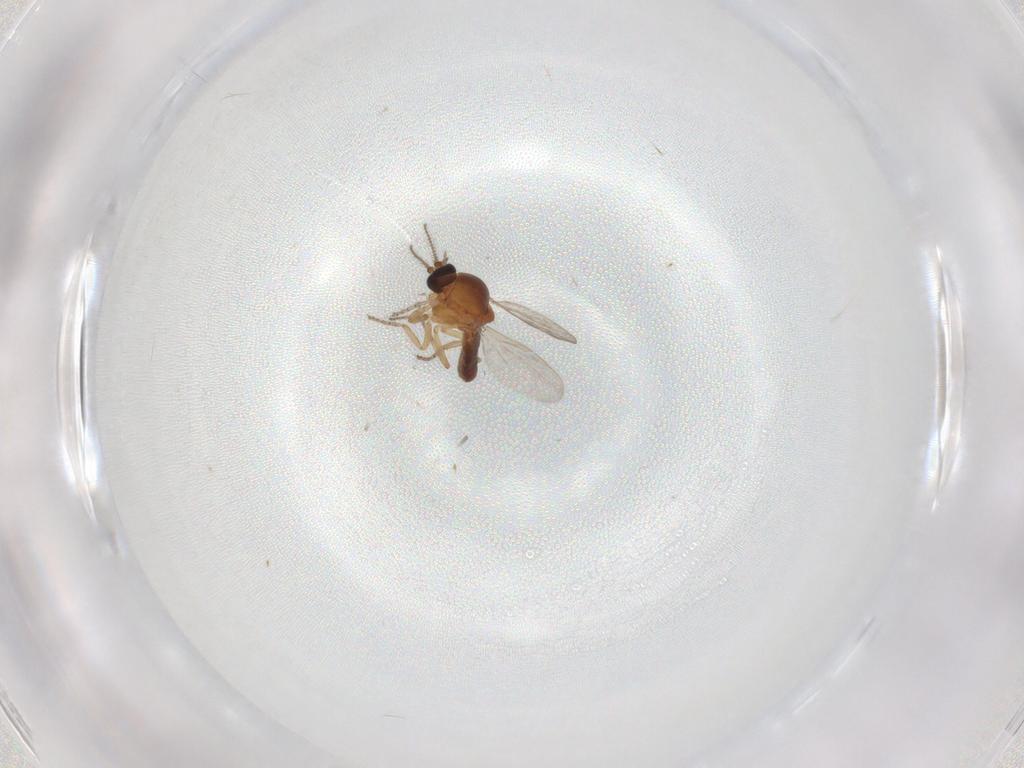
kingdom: Animalia
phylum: Arthropoda
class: Insecta
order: Diptera
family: Ceratopogonidae
